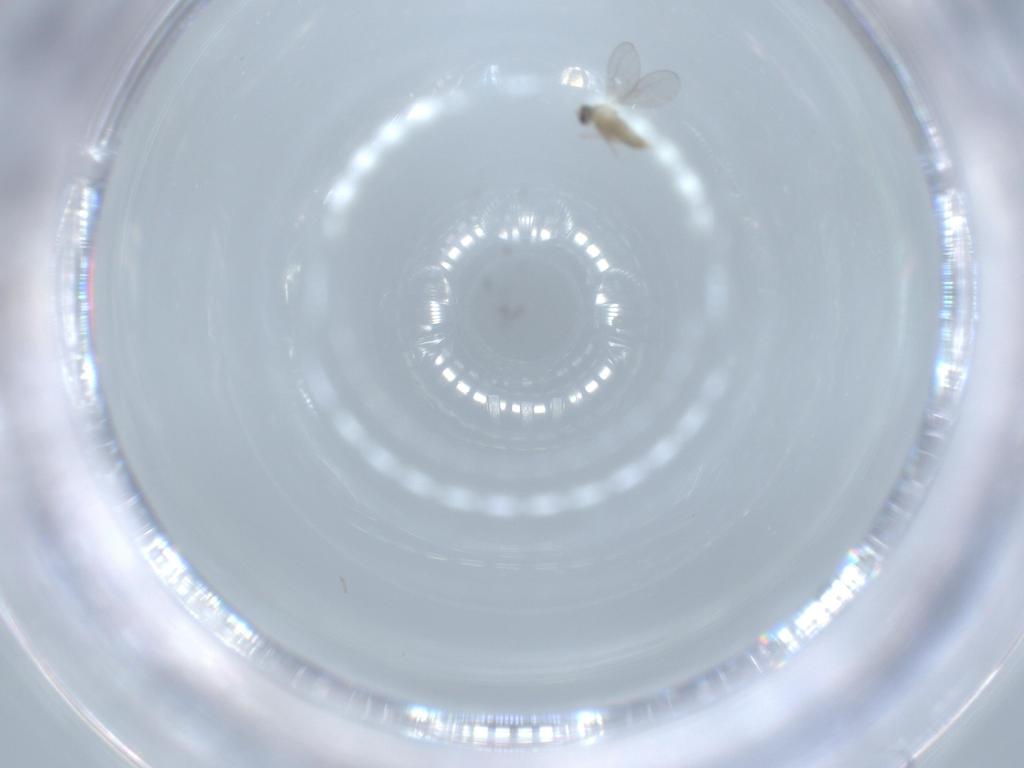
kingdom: Animalia
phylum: Arthropoda
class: Insecta
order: Diptera
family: Cecidomyiidae
